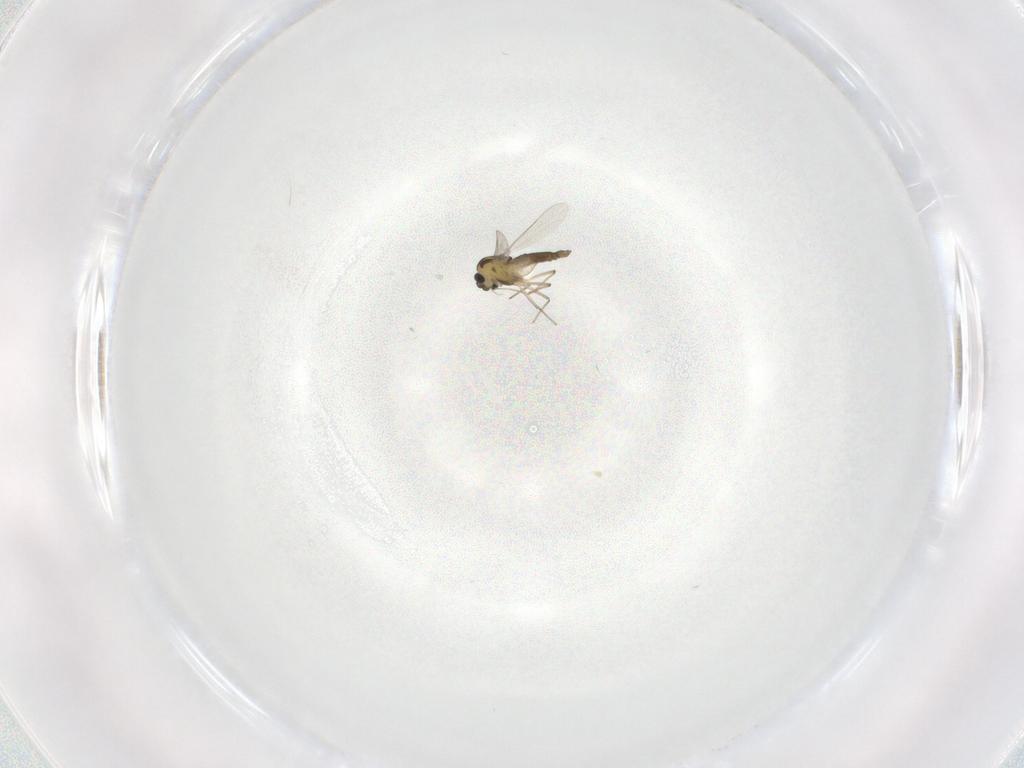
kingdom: Animalia
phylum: Arthropoda
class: Insecta
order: Diptera
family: Chironomidae
